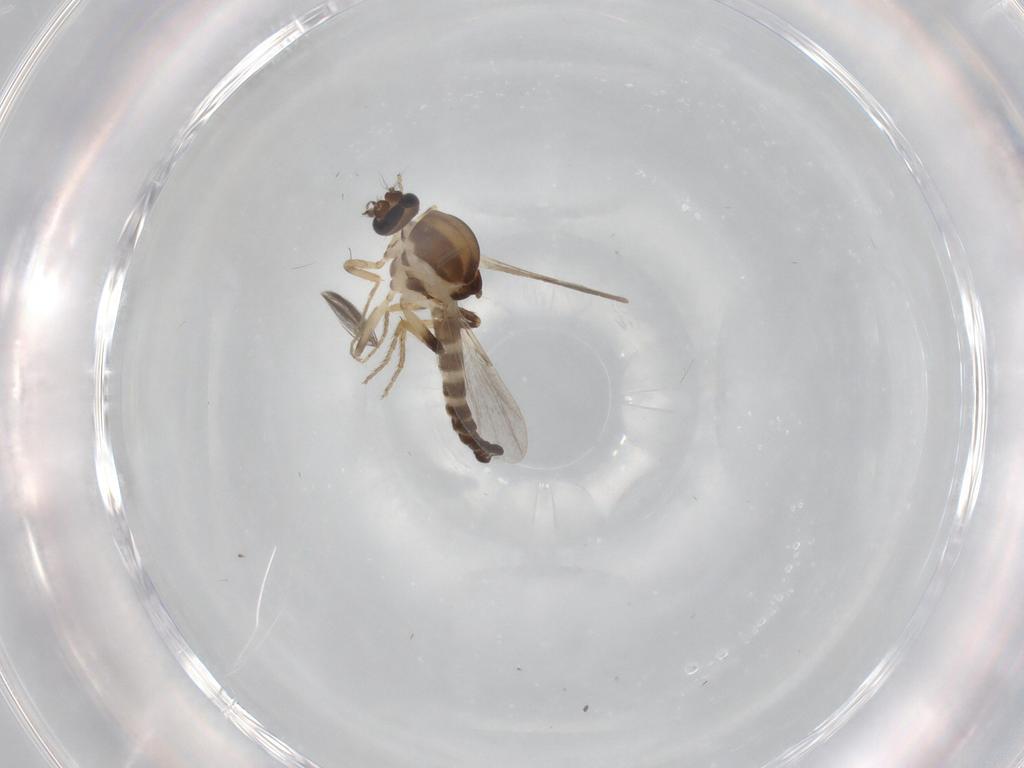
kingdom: Animalia
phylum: Arthropoda
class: Insecta
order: Diptera
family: Ceratopogonidae
